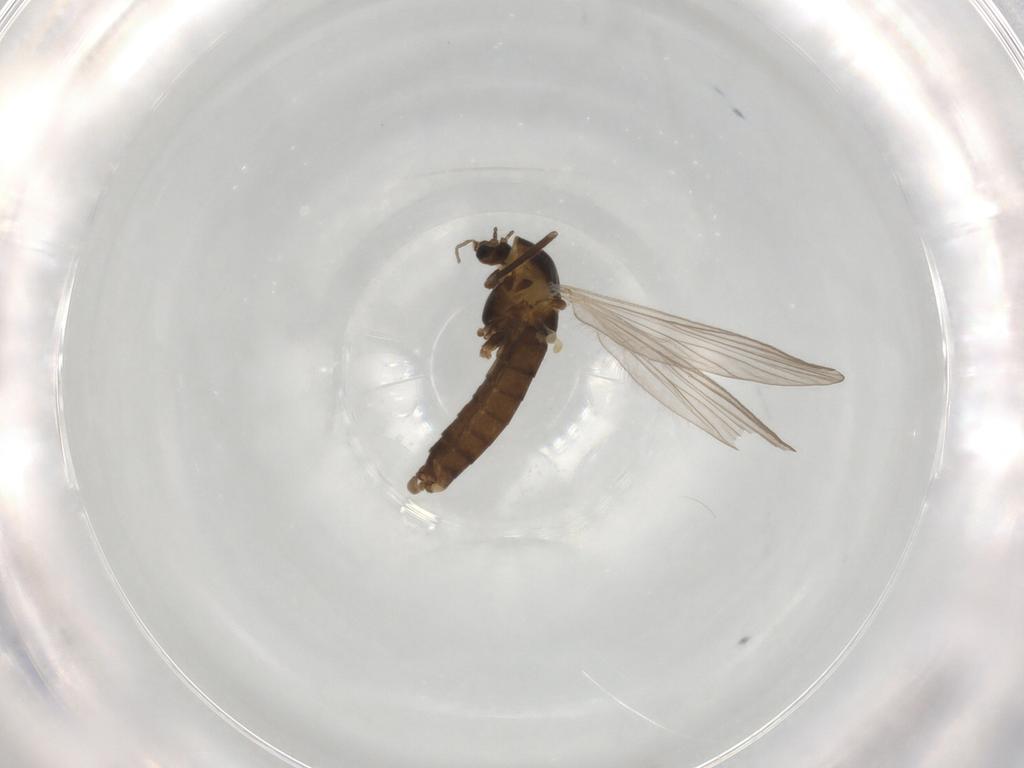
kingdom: Animalia
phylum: Arthropoda
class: Insecta
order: Diptera
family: Chironomidae
